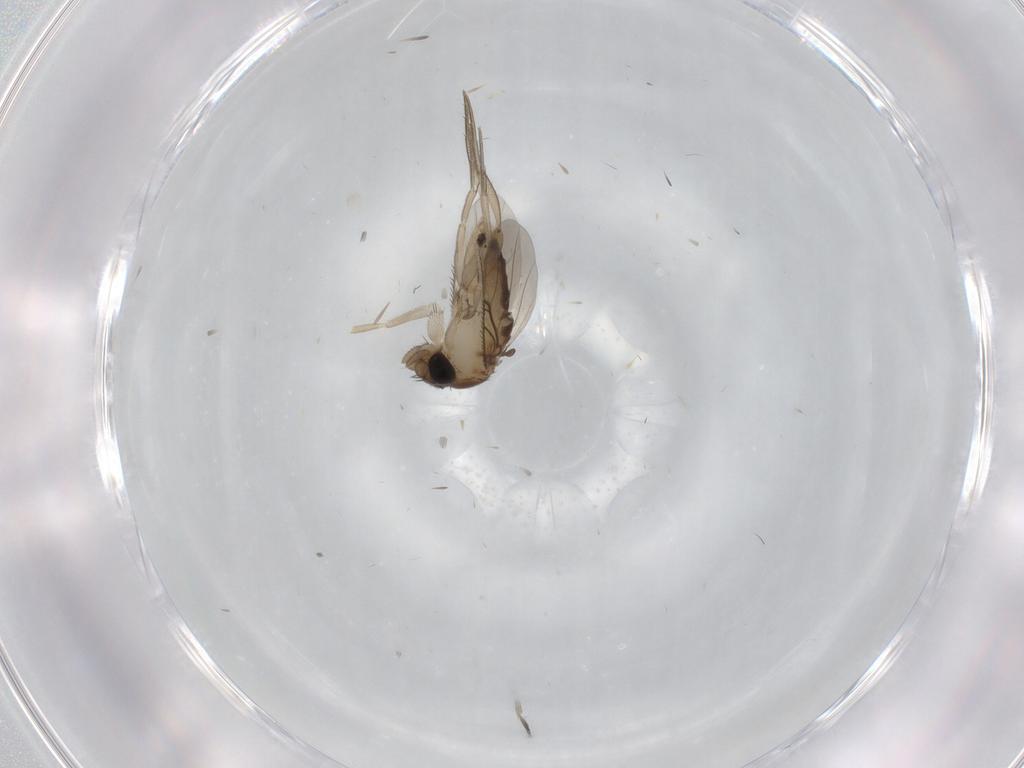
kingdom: Animalia
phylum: Arthropoda
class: Insecta
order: Diptera
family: Phoridae
